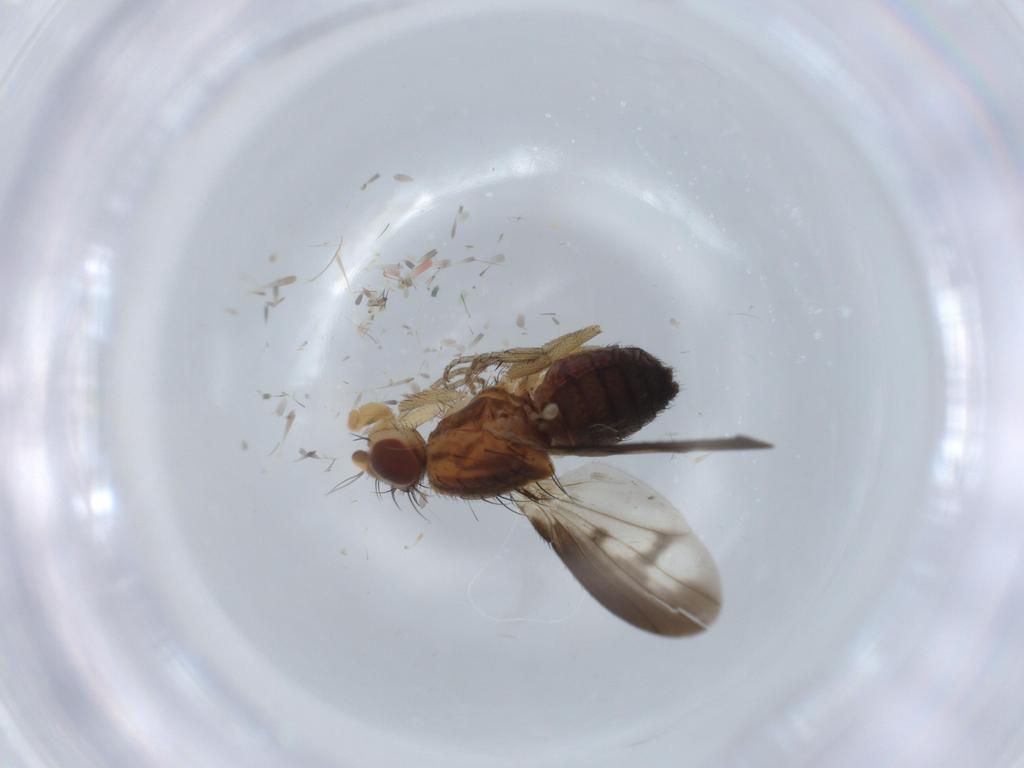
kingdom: Animalia
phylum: Arthropoda
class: Insecta
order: Diptera
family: Heleomyzidae
